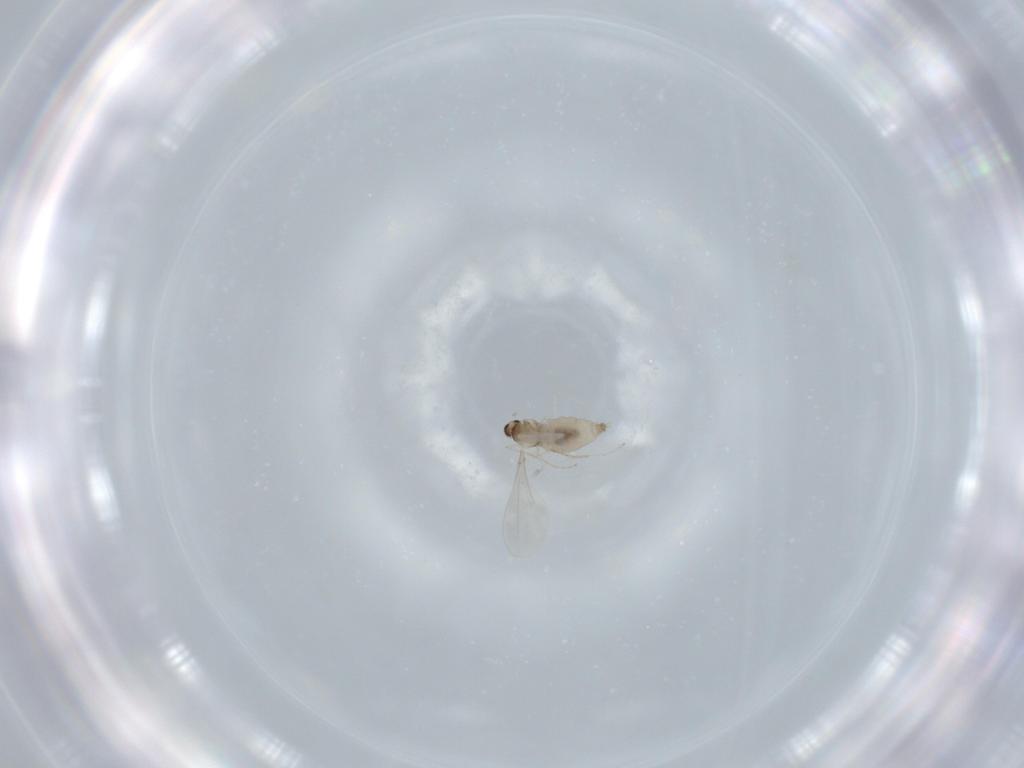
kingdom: Animalia
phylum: Arthropoda
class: Insecta
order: Diptera
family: Cecidomyiidae
